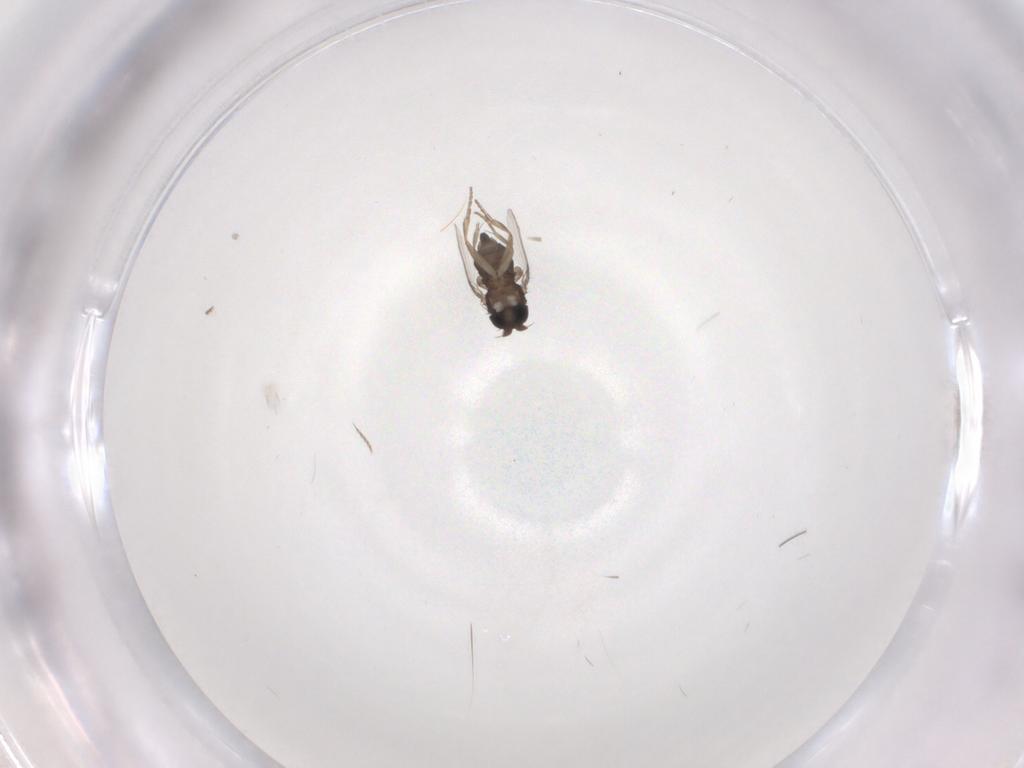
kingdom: Animalia
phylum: Arthropoda
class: Insecta
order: Diptera
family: Phoridae
